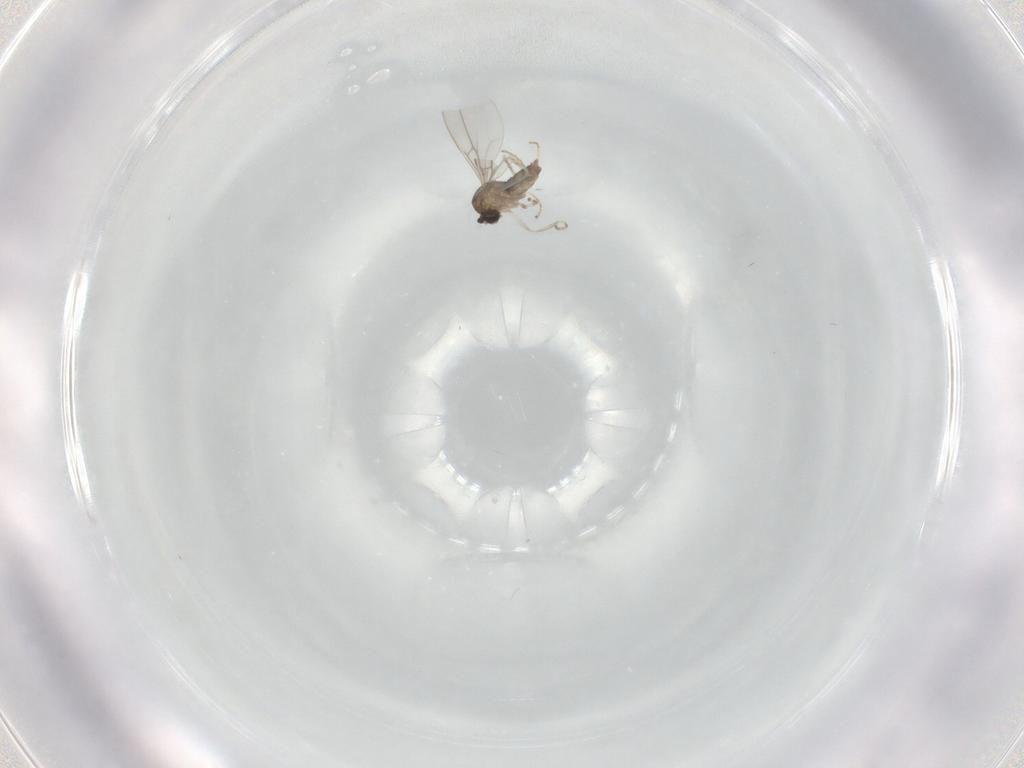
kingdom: Animalia
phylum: Arthropoda
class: Insecta
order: Diptera
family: Cecidomyiidae
